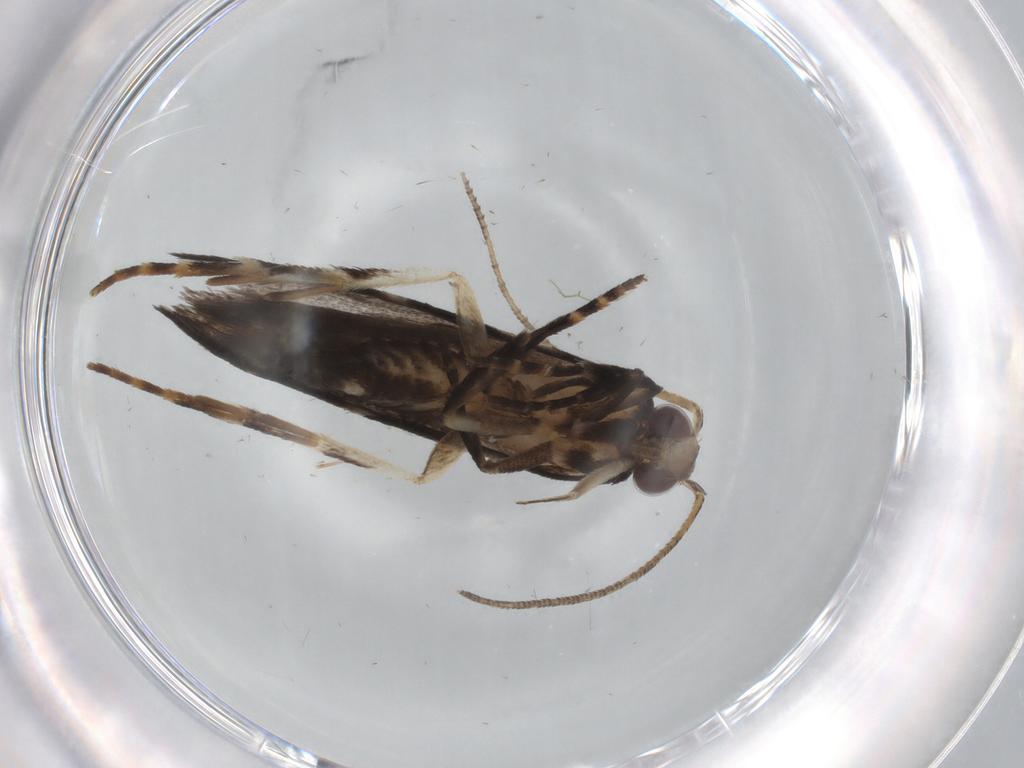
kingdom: Animalia
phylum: Arthropoda
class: Insecta
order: Lepidoptera
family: Gelechiidae
